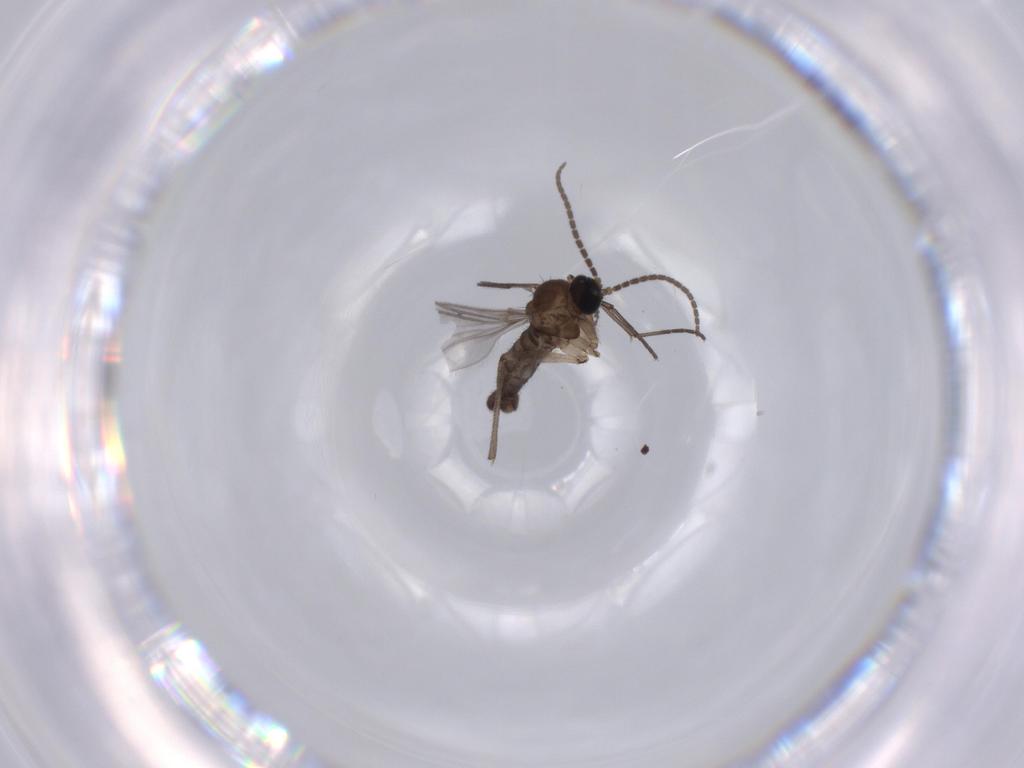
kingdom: Animalia
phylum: Arthropoda
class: Insecta
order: Diptera
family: Sciaridae
